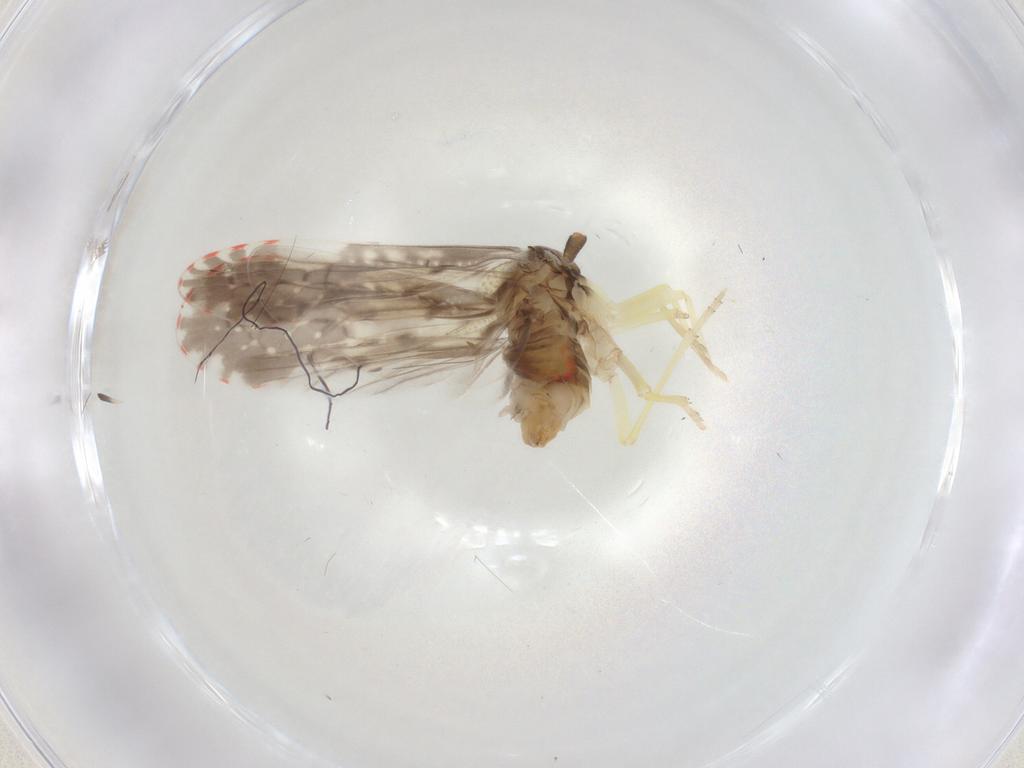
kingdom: Animalia
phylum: Arthropoda
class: Insecta
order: Hemiptera
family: Derbidae
